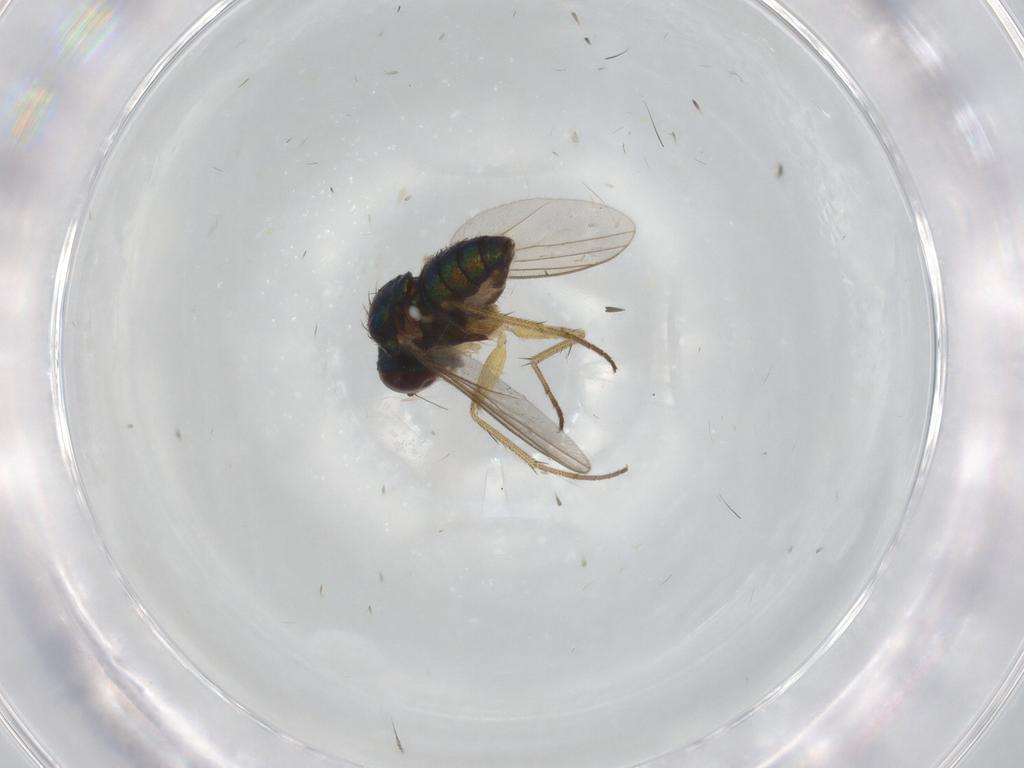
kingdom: Animalia
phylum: Arthropoda
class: Insecta
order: Diptera
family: Dolichopodidae
